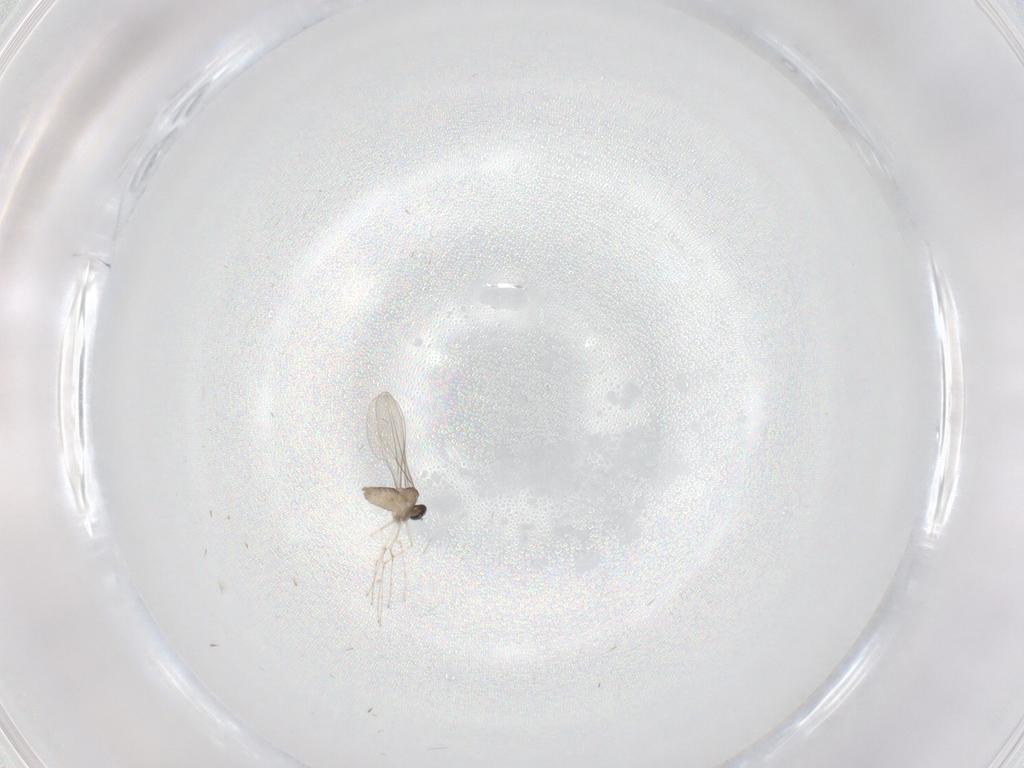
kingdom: Animalia
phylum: Arthropoda
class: Insecta
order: Diptera
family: Cecidomyiidae
